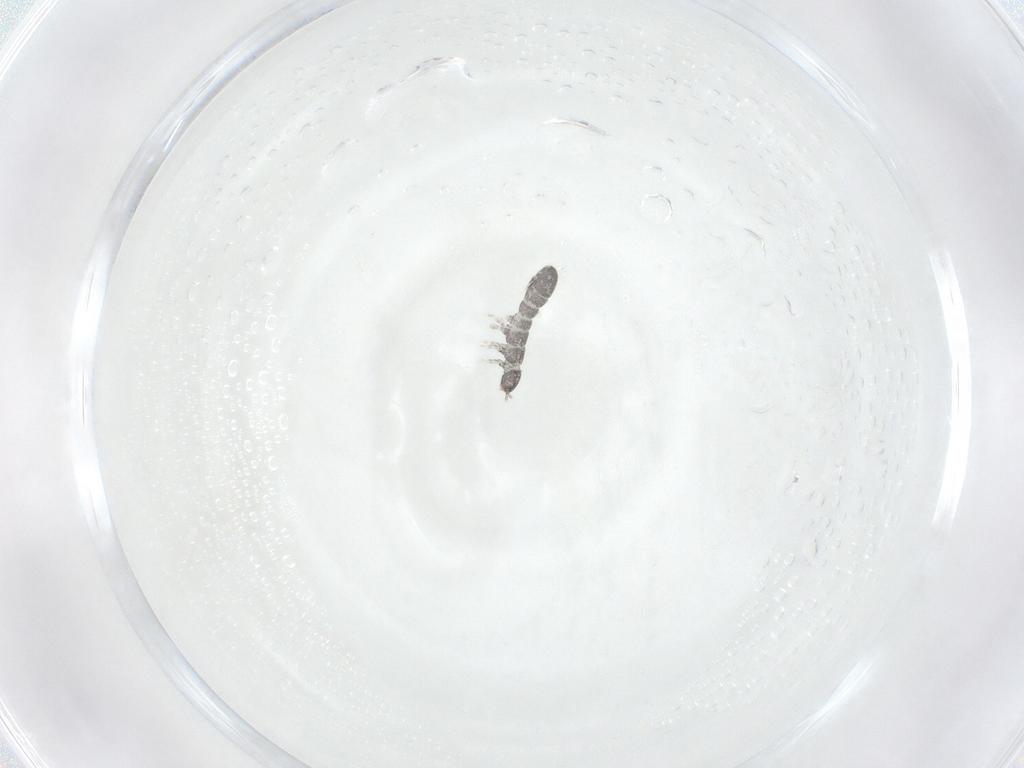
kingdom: Animalia
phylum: Arthropoda
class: Collembola
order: Entomobryomorpha
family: Isotomidae
